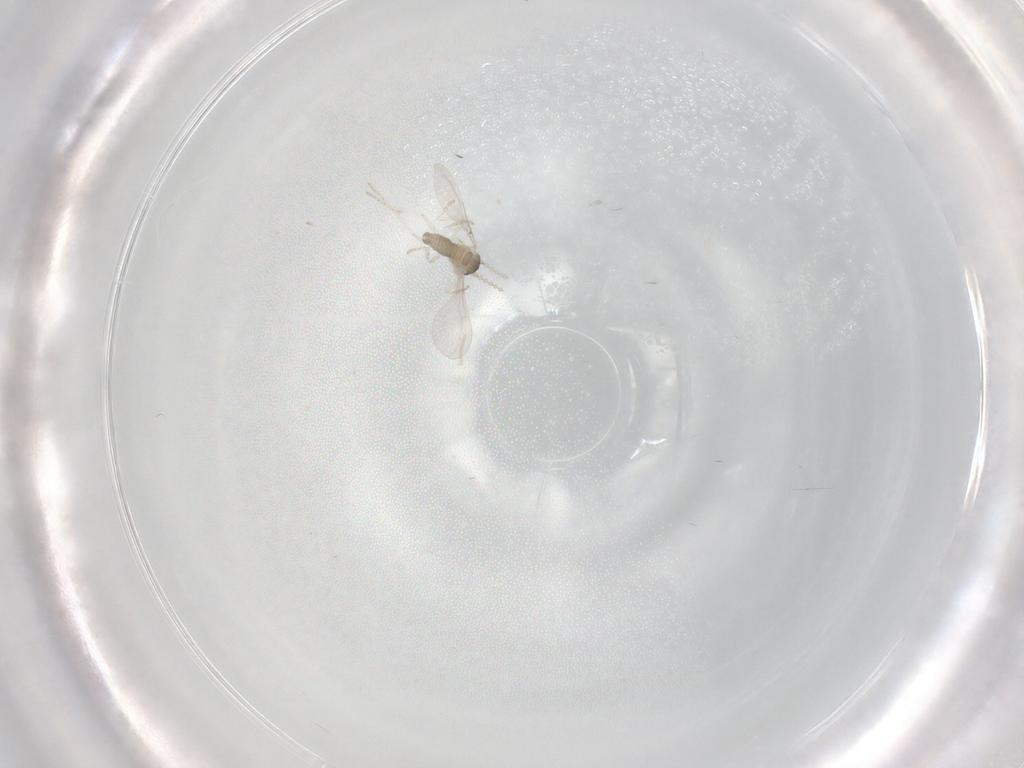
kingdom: Animalia
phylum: Arthropoda
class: Insecta
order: Diptera
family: Cecidomyiidae
